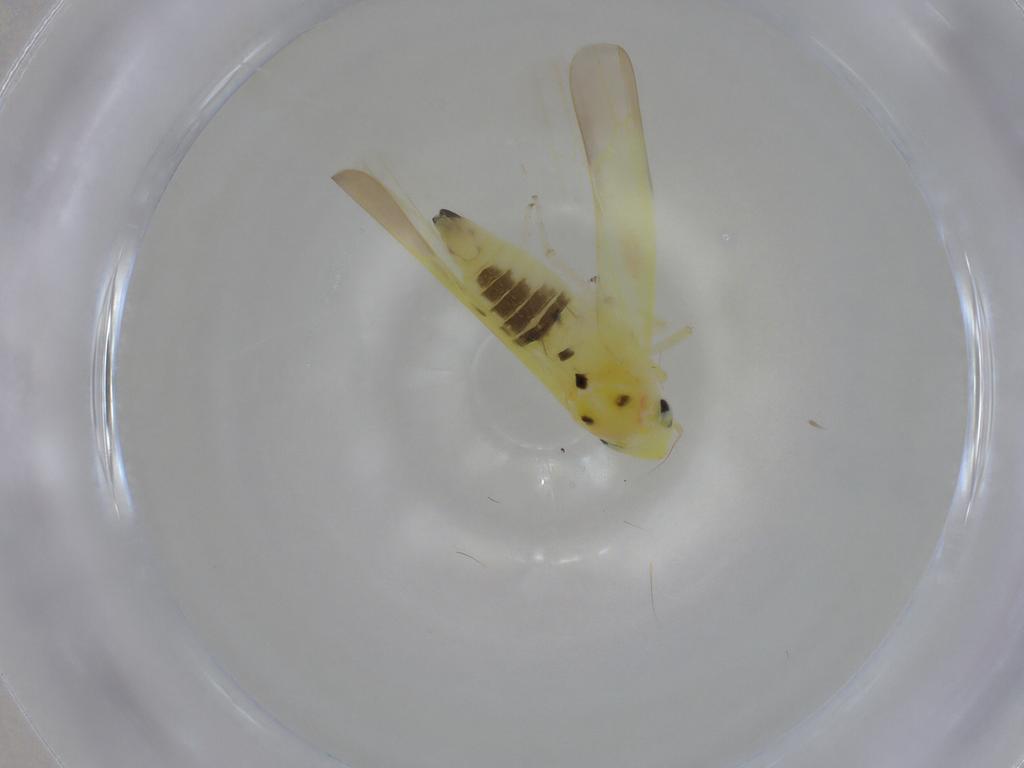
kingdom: Animalia
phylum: Arthropoda
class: Insecta
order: Hemiptera
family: Cicadellidae
